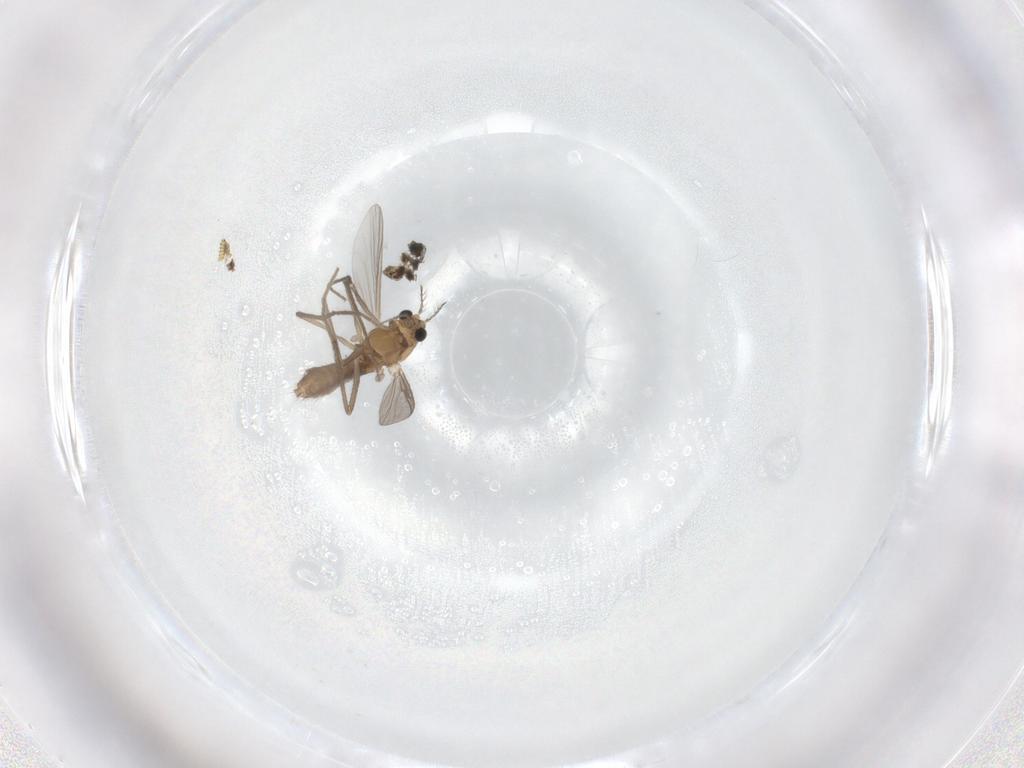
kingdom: Animalia
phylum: Arthropoda
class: Insecta
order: Diptera
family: Chironomidae
